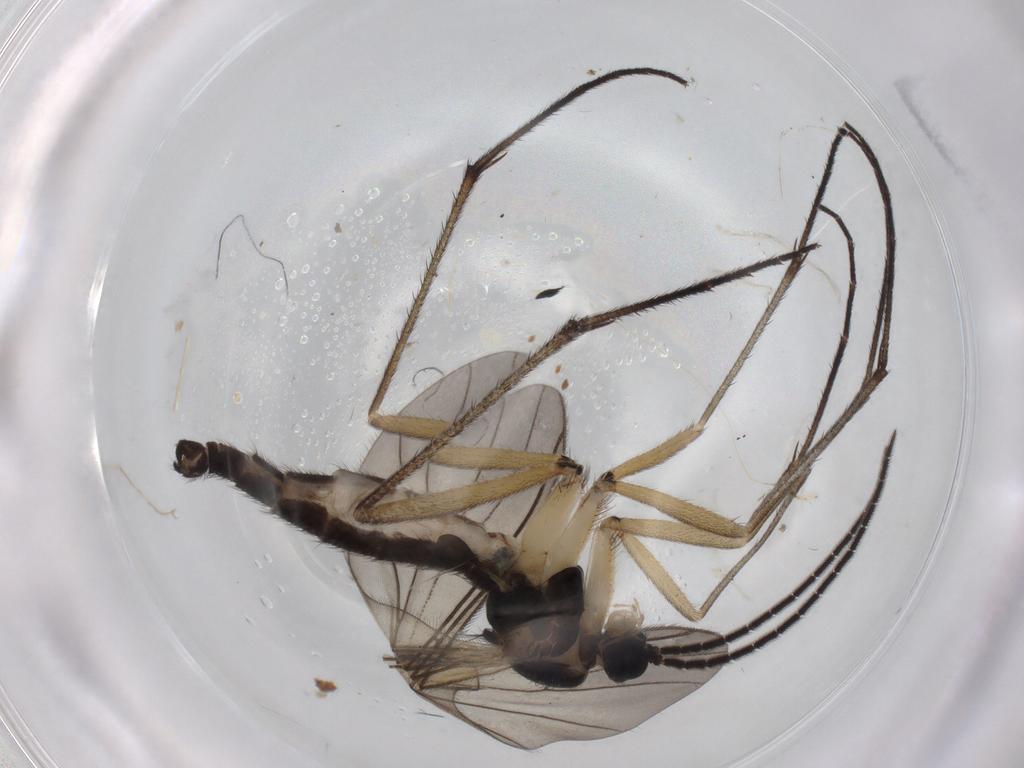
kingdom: Animalia
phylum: Arthropoda
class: Insecta
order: Diptera
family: Sciaridae
